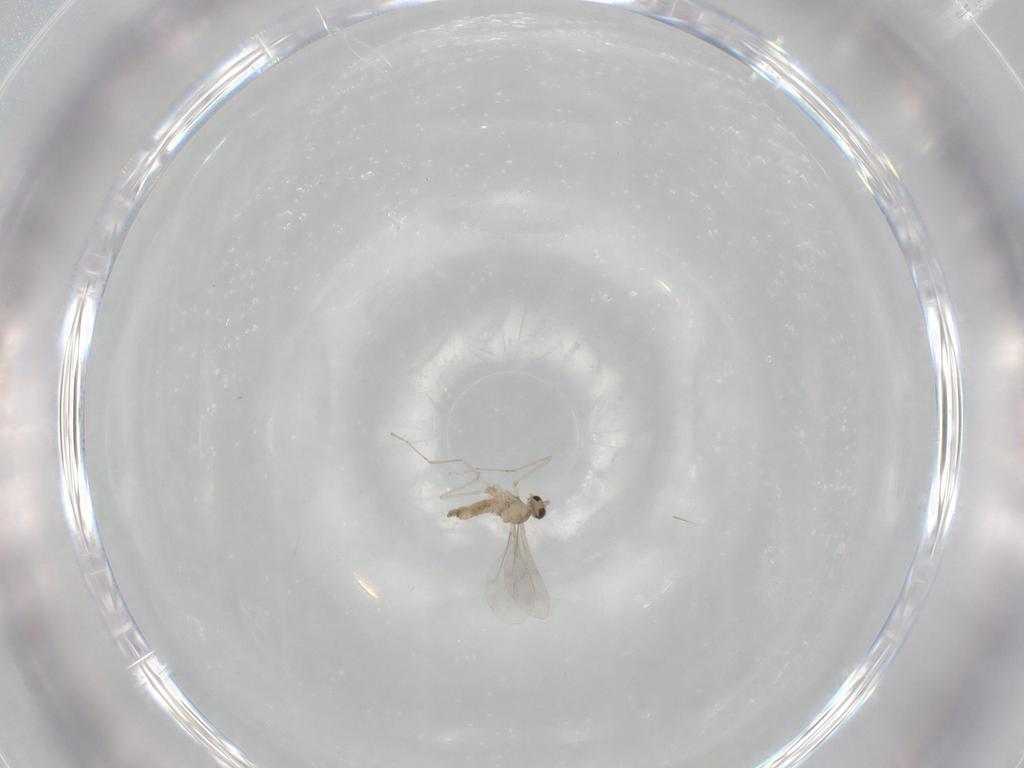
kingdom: Animalia
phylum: Arthropoda
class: Insecta
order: Diptera
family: Cecidomyiidae
